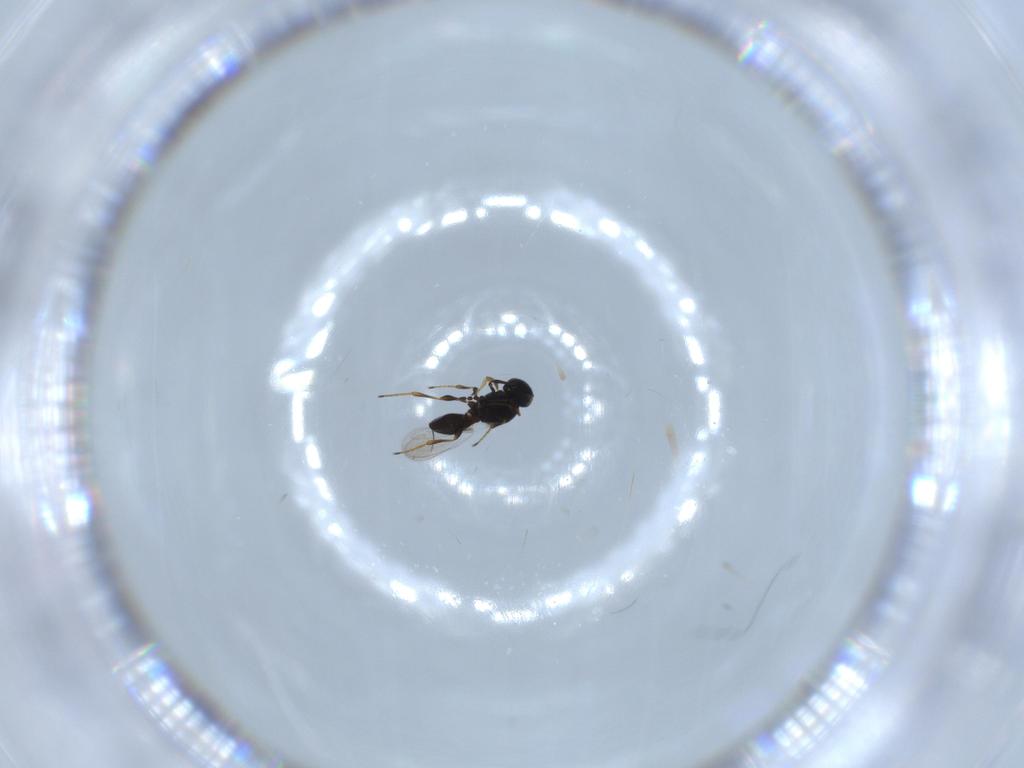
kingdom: Animalia
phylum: Arthropoda
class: Insecta
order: Hymenoptera
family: Platygastridae
